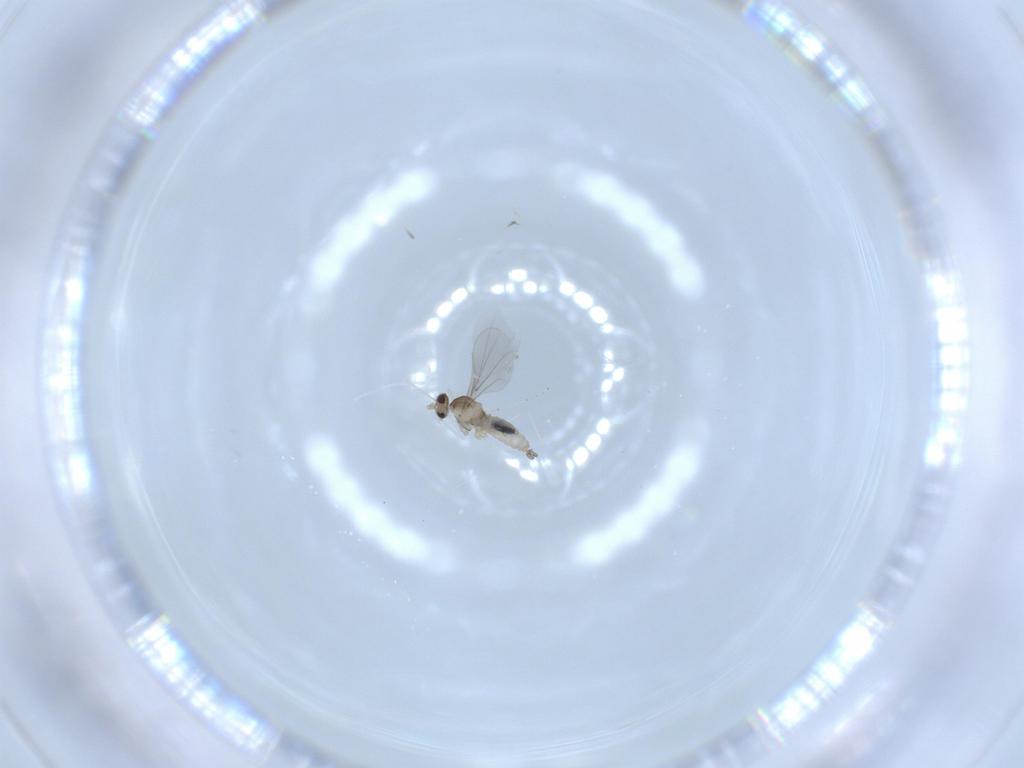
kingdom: Animalia
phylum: Arthropoda
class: Insecta
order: Diptera
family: Cecidomyiidae
